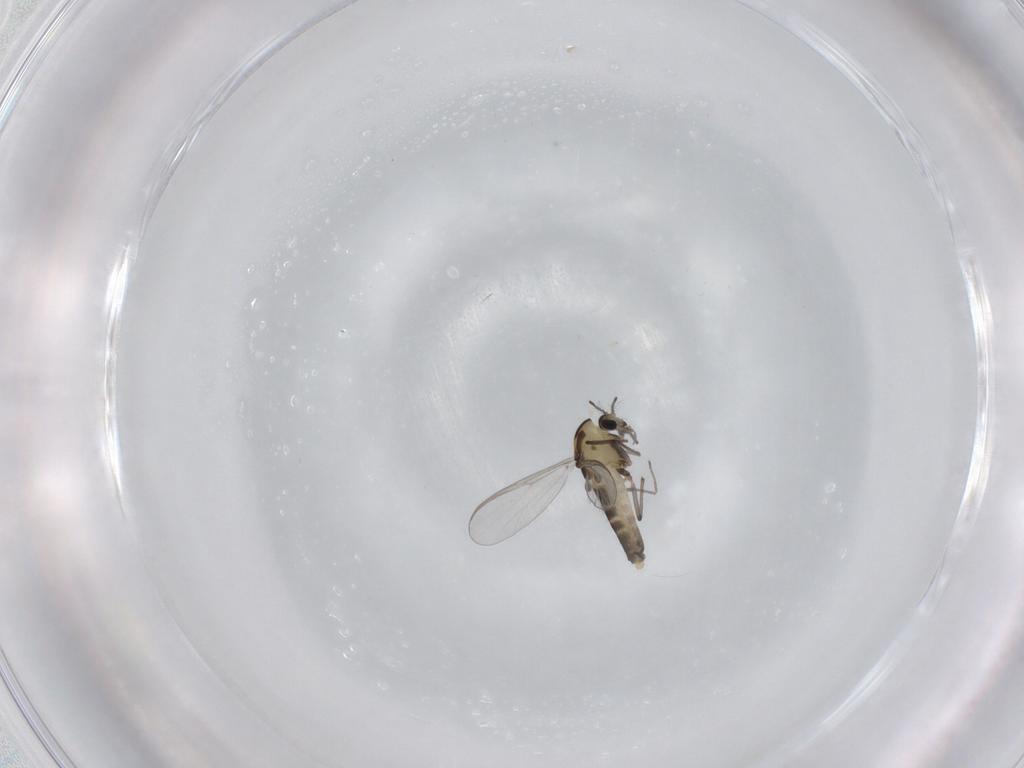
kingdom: Animalia
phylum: Arthropoda
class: Insecta
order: Diptera
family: Chironomidae
